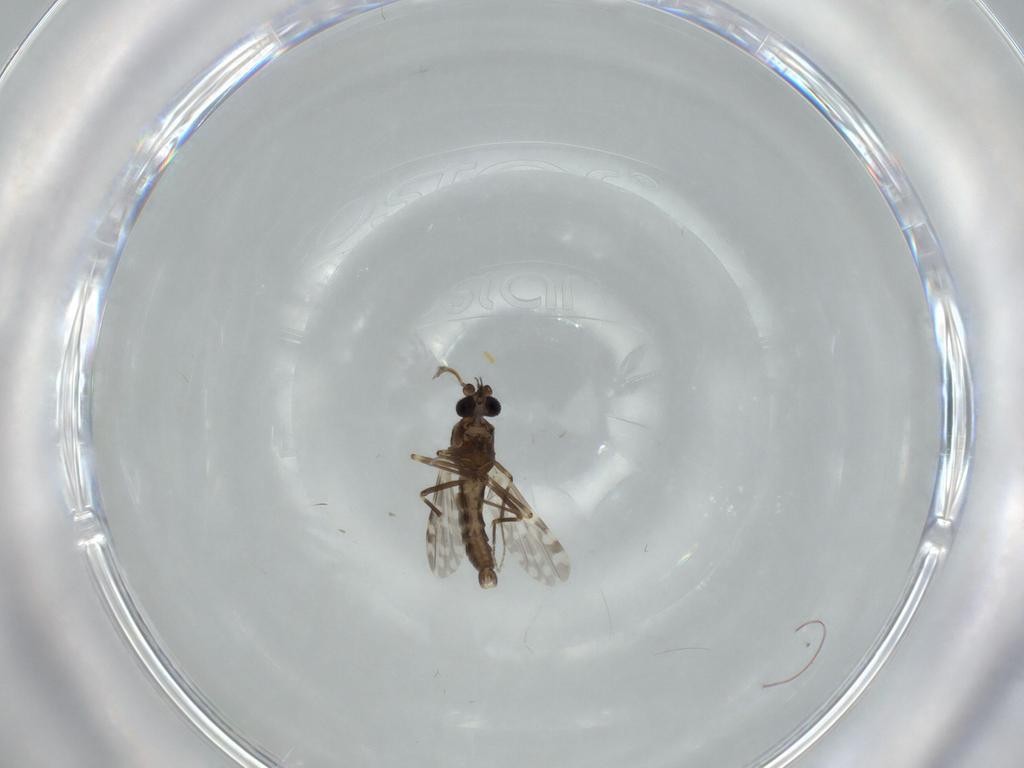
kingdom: Animalia
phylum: Arthropoda
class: Insecta
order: Diptera
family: Ceratopogonidae
